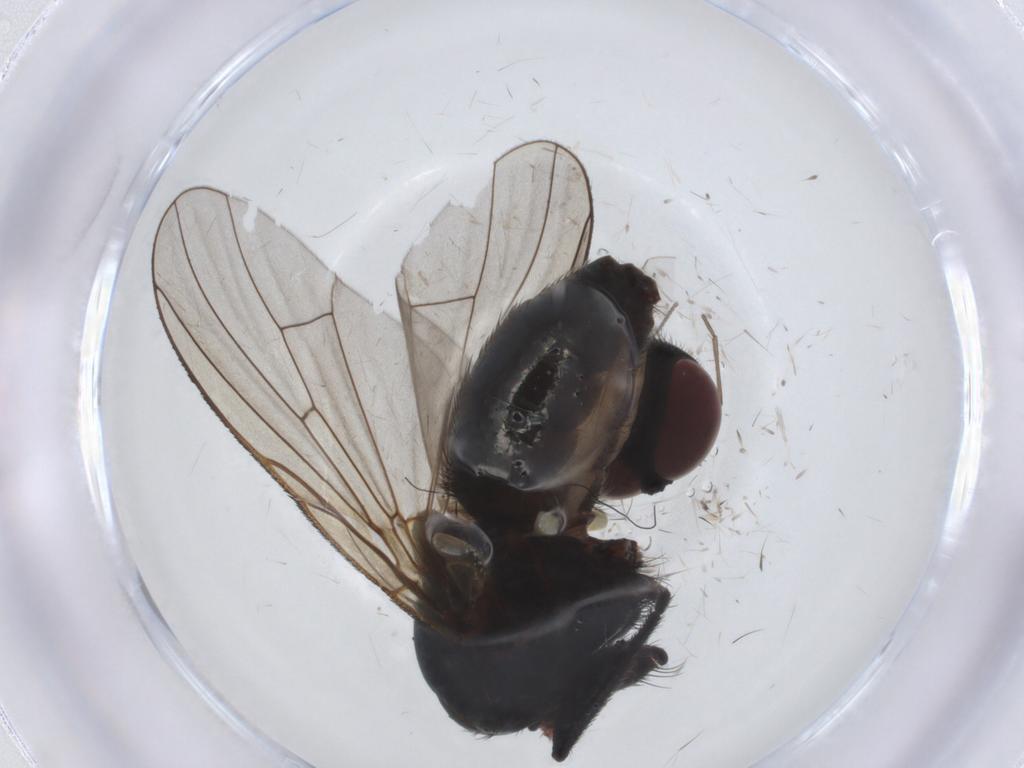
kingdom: Animalia
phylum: Arthropoda
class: Insecta
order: Diptera
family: Muscidae
